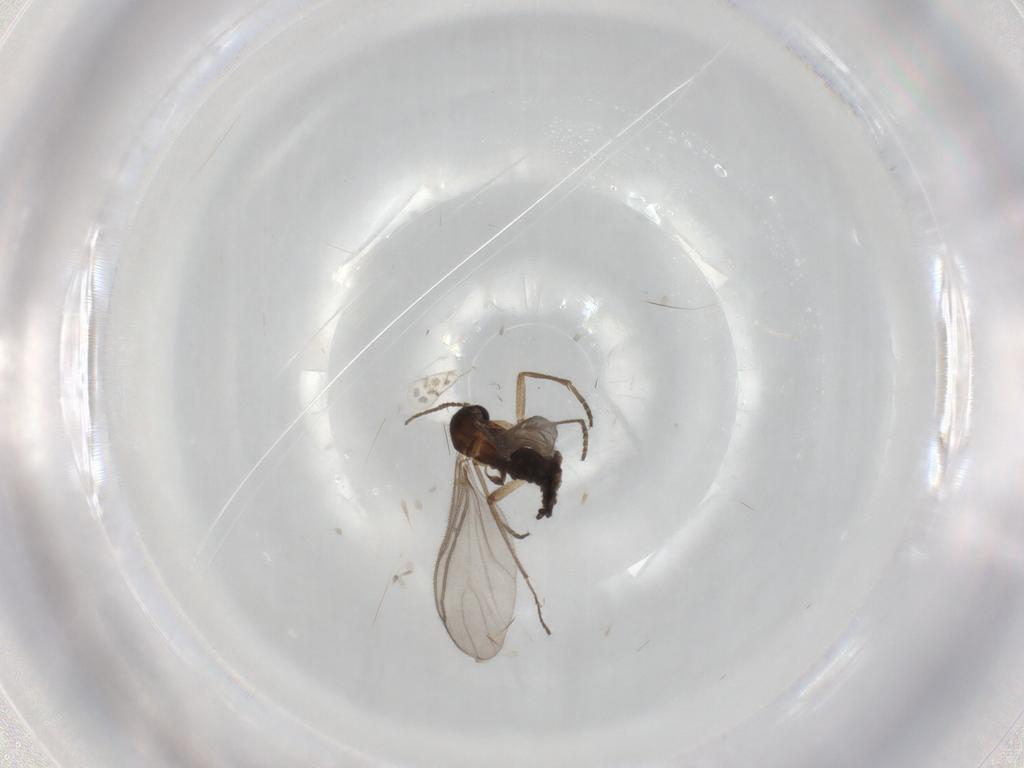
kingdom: Animalia
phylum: Arthropoda
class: Insecta
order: Diptera
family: Sciaridae
